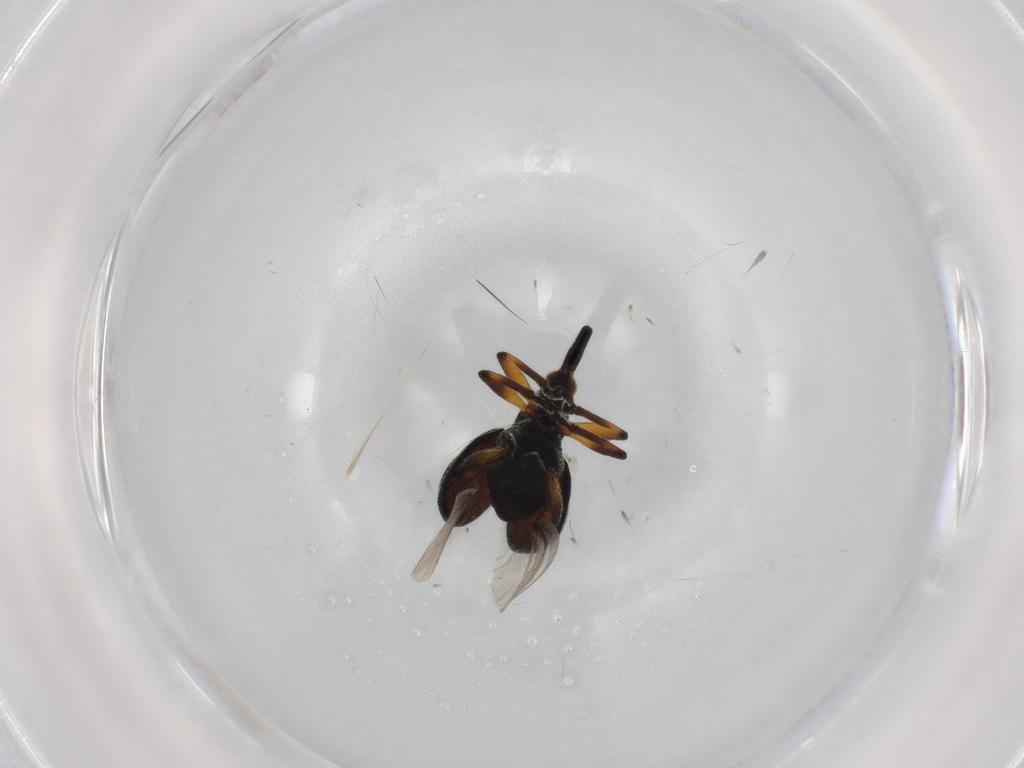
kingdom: Animalia
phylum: Arthropoda
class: Insecta
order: Coleoptera
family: Brentidae
